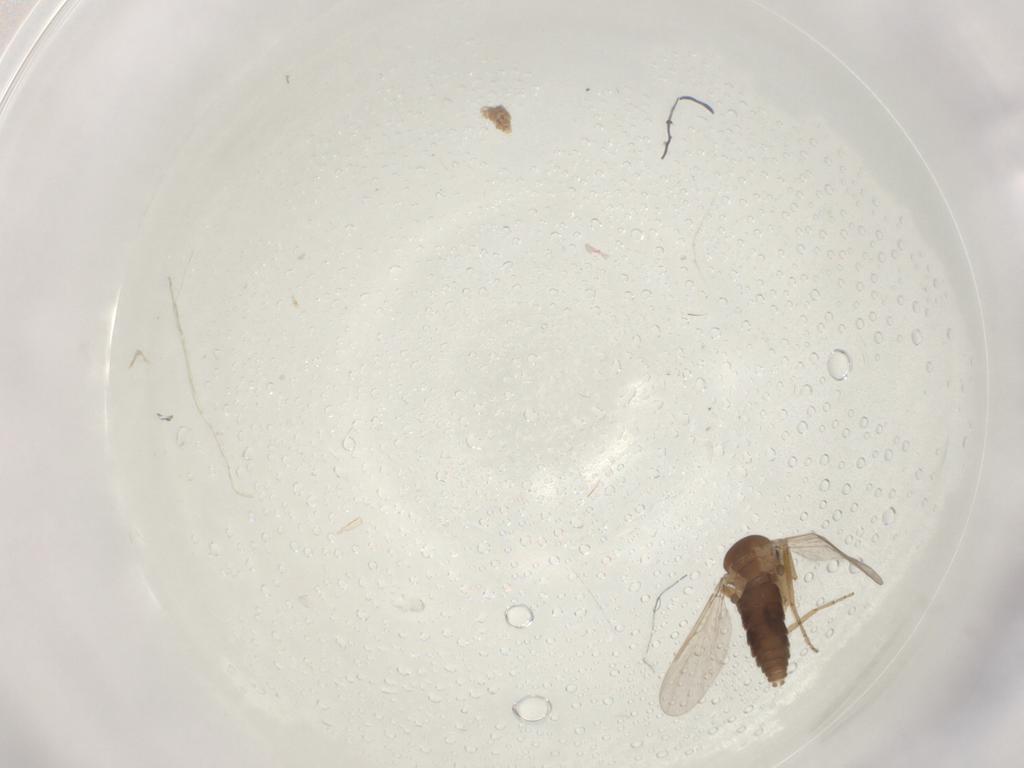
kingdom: Animalia
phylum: Arthropoda
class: Insecta
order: Diptera
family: Ceratopogonidae
